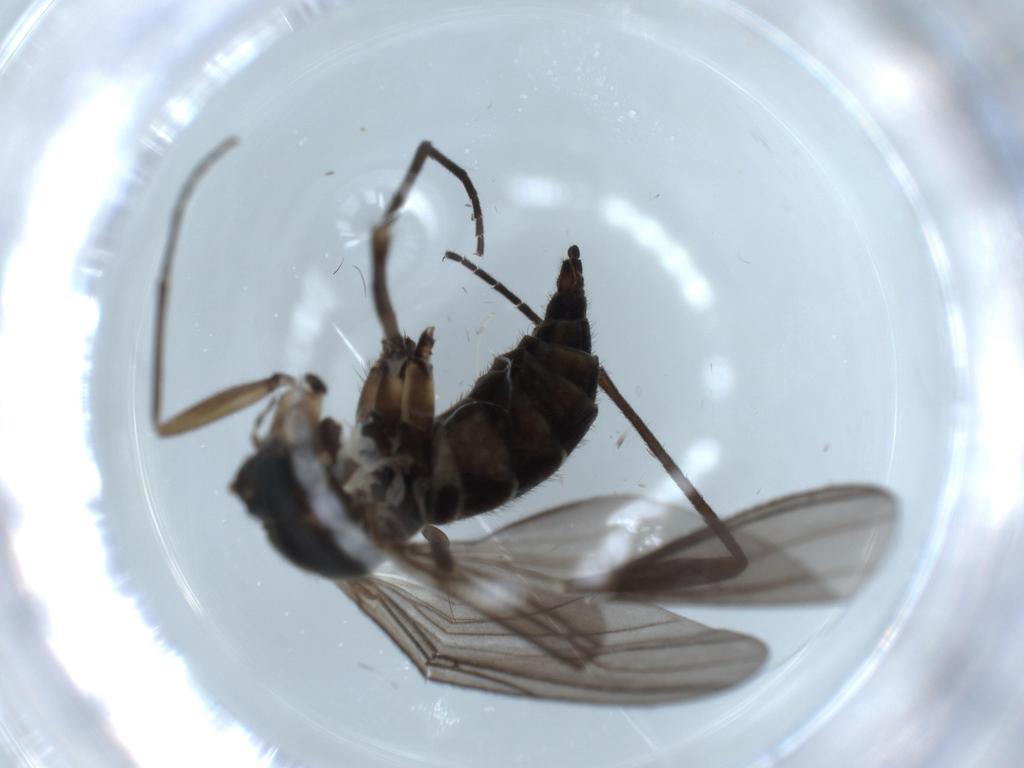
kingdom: Animalia
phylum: Arthropoda
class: Insecta
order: Diptera
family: Sciaridae
